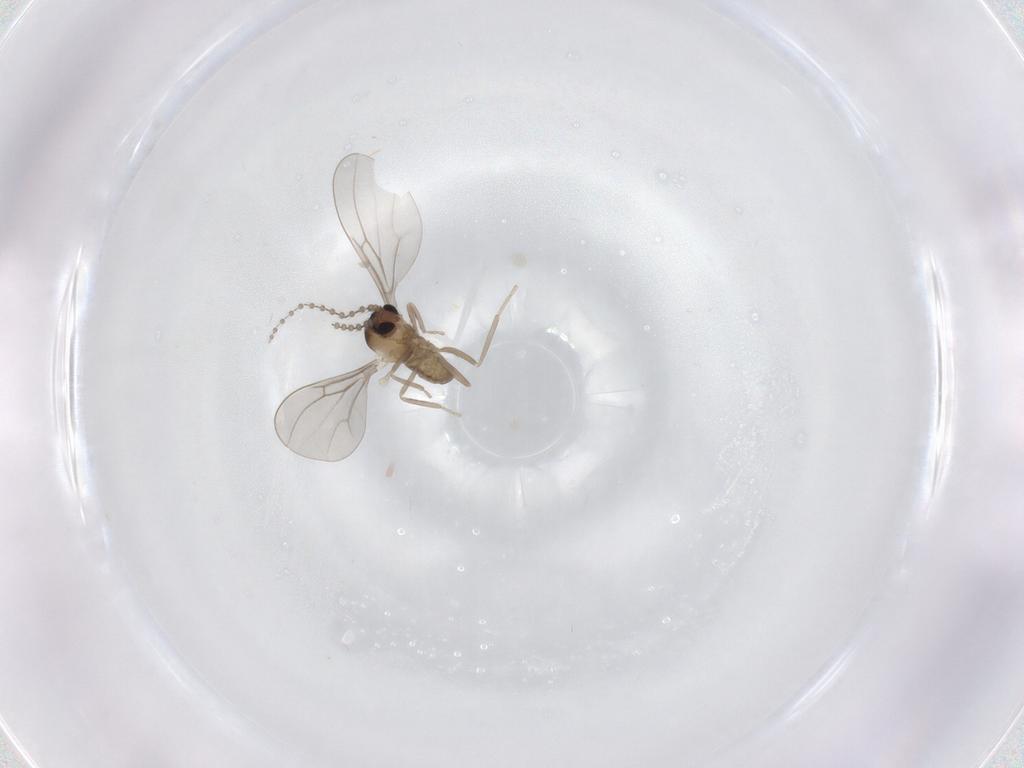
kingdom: Animalia
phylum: Arthropoda
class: Insecta
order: Diptera
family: Cecidomyiidae
